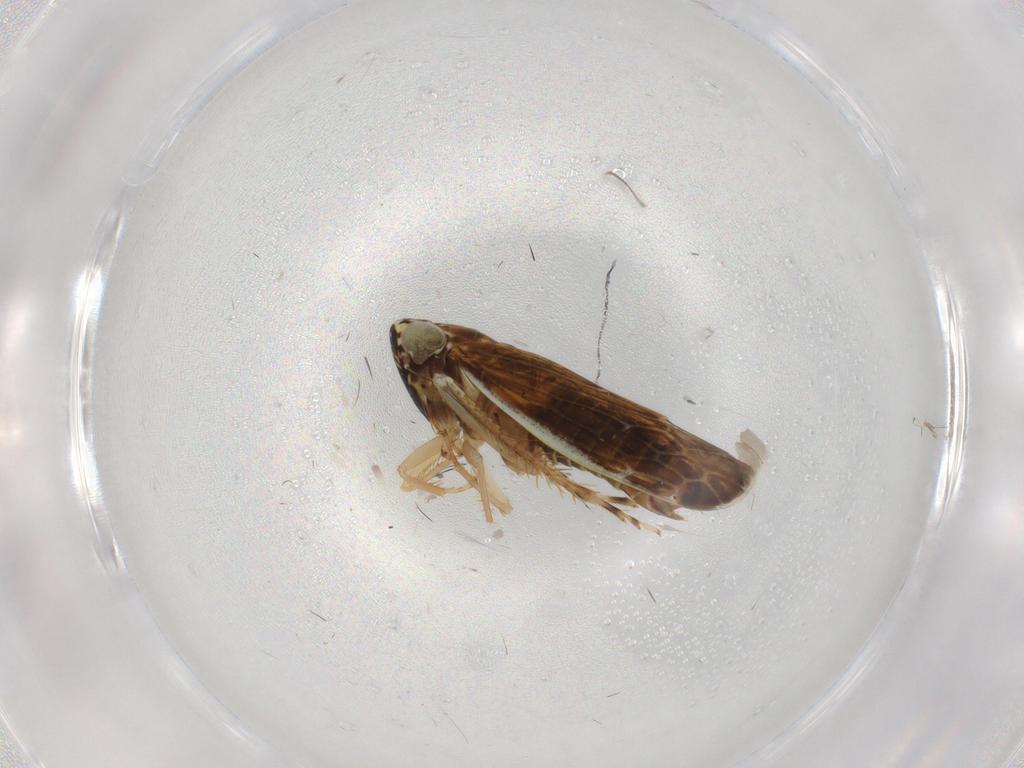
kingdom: Animalia
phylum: Arthropoda
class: Insecta
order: Hemiptera
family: Cicadellidae
